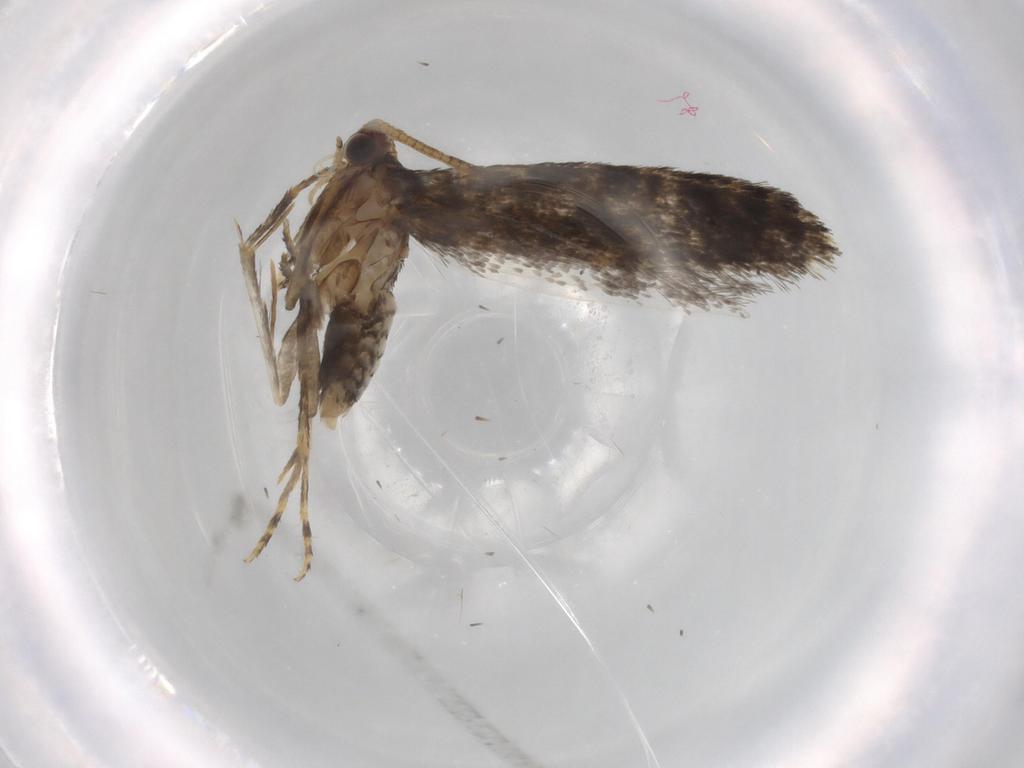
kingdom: Animalia
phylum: Arthropoda
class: Insecta
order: Lepidoptera
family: Tineidae
